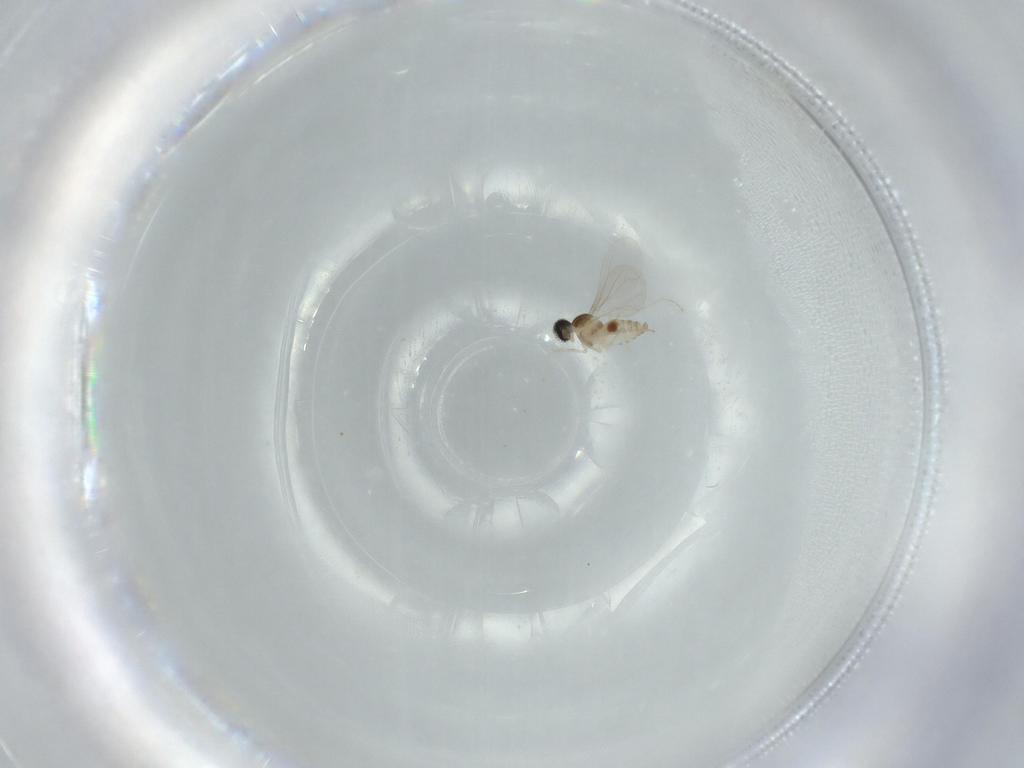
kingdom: Animalia
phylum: Arthropoda
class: Insecta
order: Diptera
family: Cecidomyiidae
